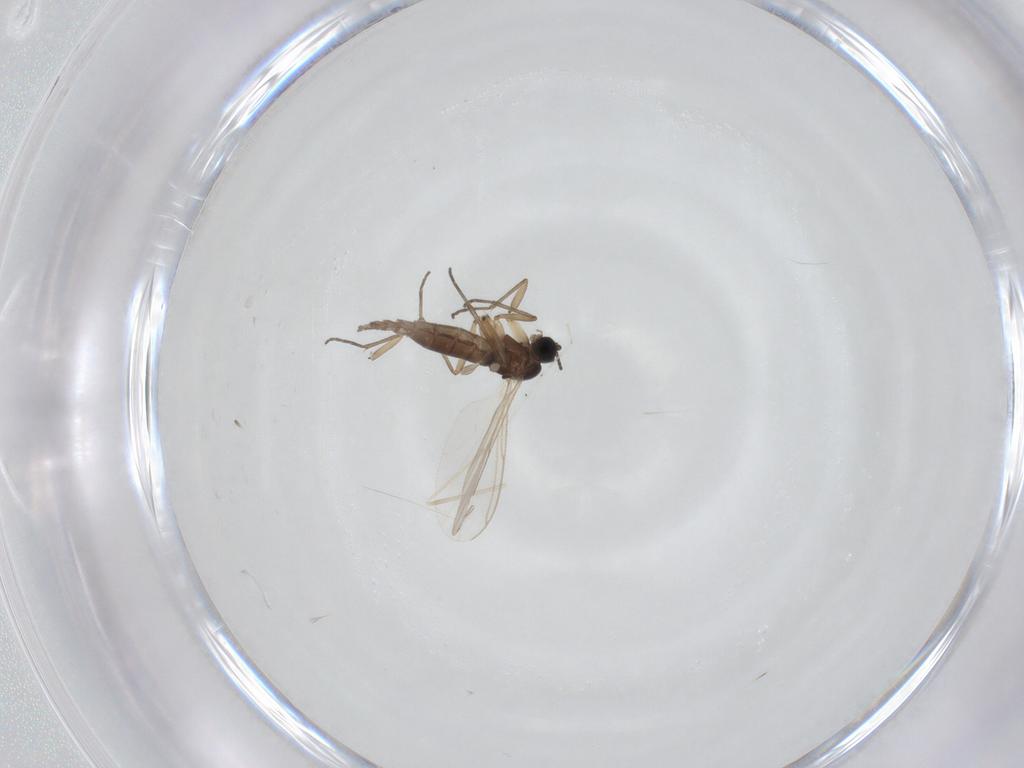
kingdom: Animalia
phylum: Arthropoda
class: Insecta
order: Diptera
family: Sciaridae
